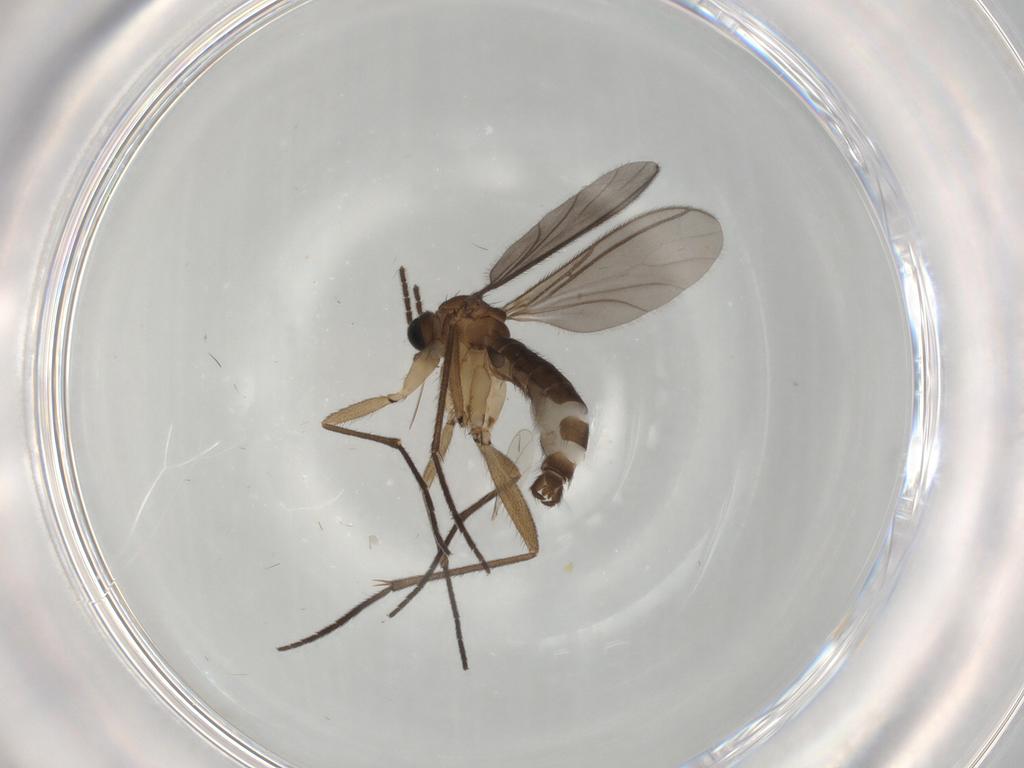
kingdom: Animalia
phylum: Arthropoda
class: Insecta
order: Diptera
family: Sciaridae
